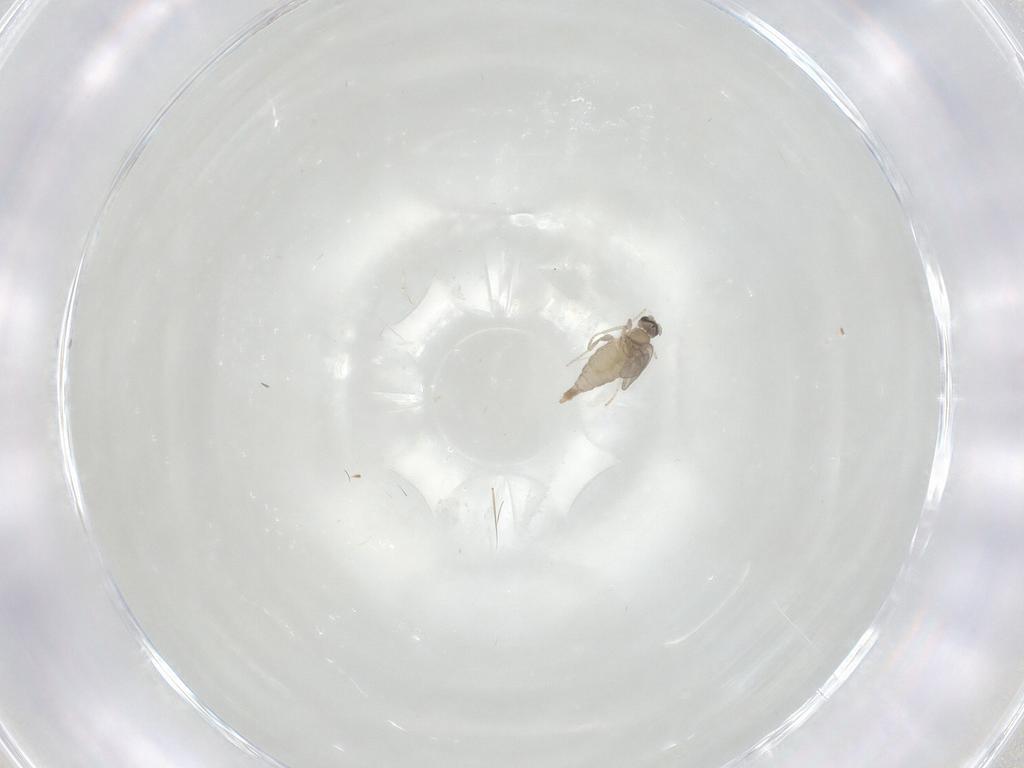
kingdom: Animalia
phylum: Arthropoda
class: Insecta
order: Diptera
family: Cecidomyiidae
